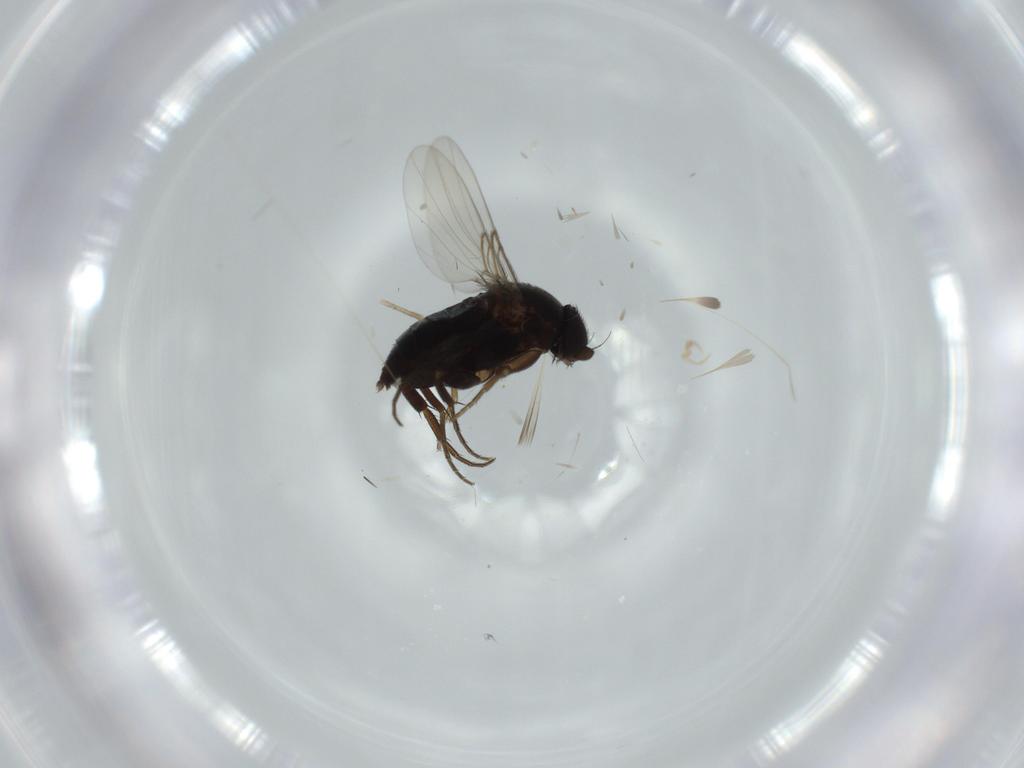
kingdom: Animalia
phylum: Arthropoda
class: Insecta
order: Diptera
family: Phoridae
